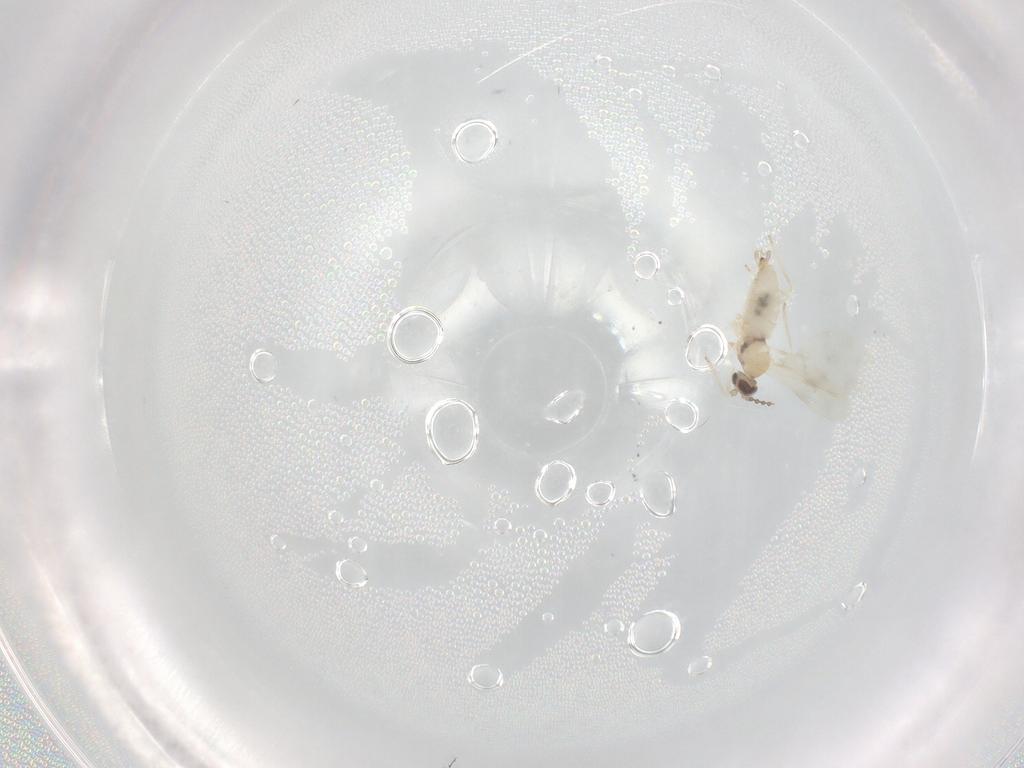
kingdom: Animalia
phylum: Arthropoda
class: Insecta
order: Diptera
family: Cecidomyiidae
